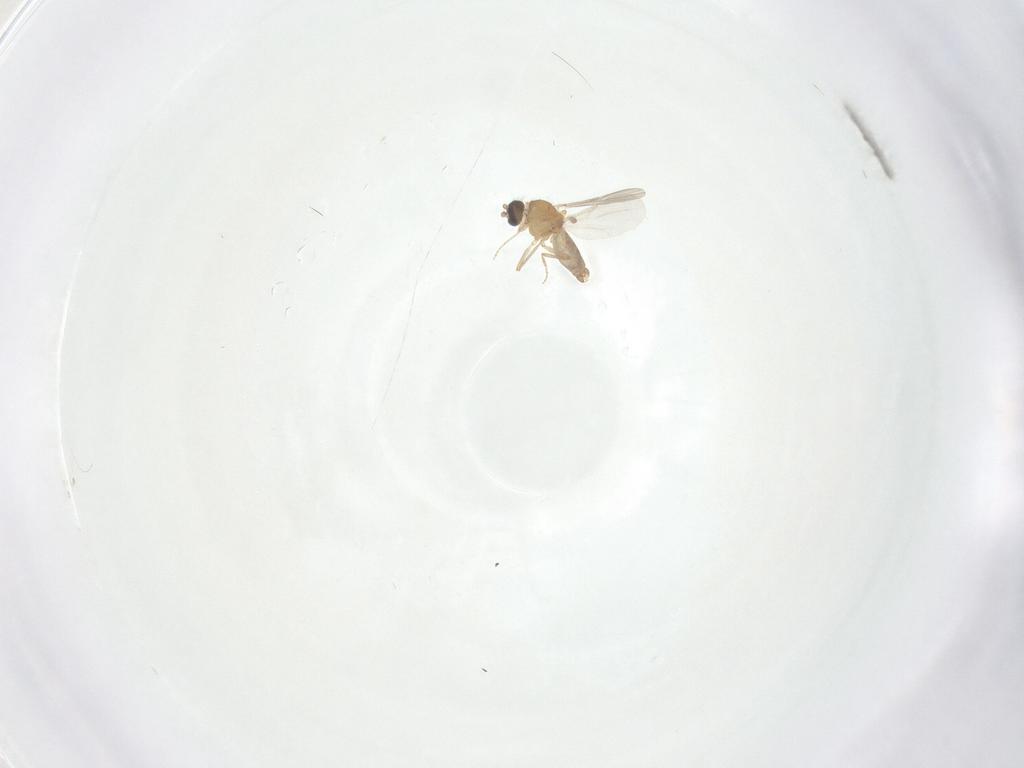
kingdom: Animalia
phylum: Arthropoda
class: Insecta
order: Diptera
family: Ceratopogonidae
